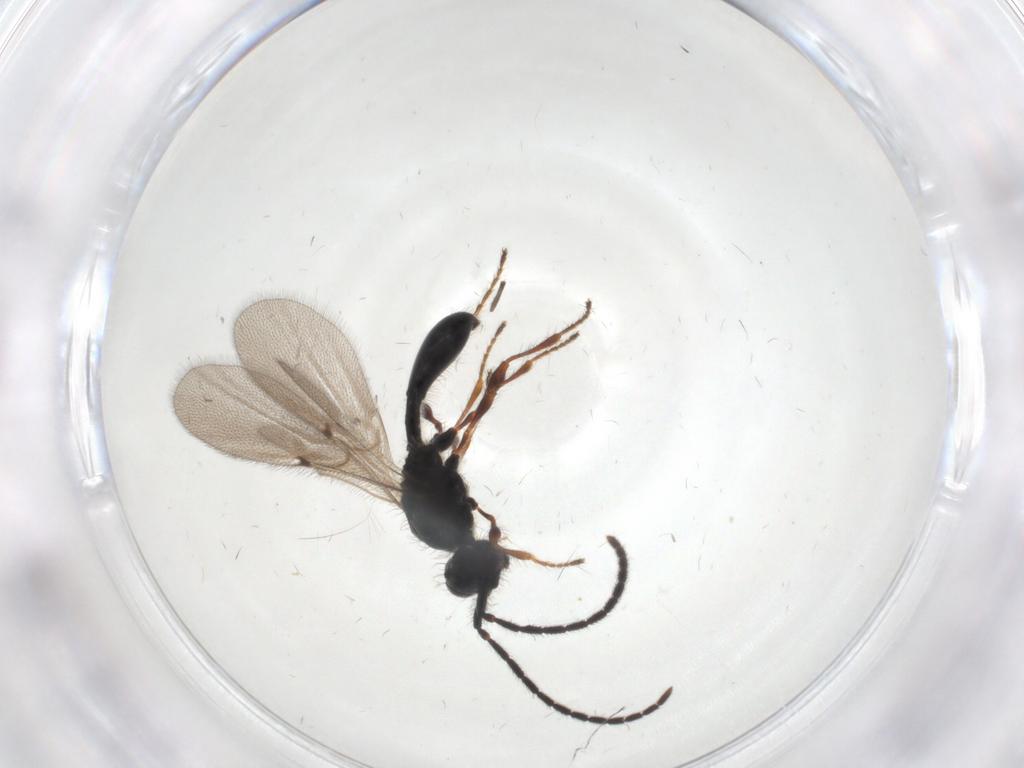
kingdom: Animalia
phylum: Arthropoda
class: Insecta
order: Hymenoptera
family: Diapriidae
